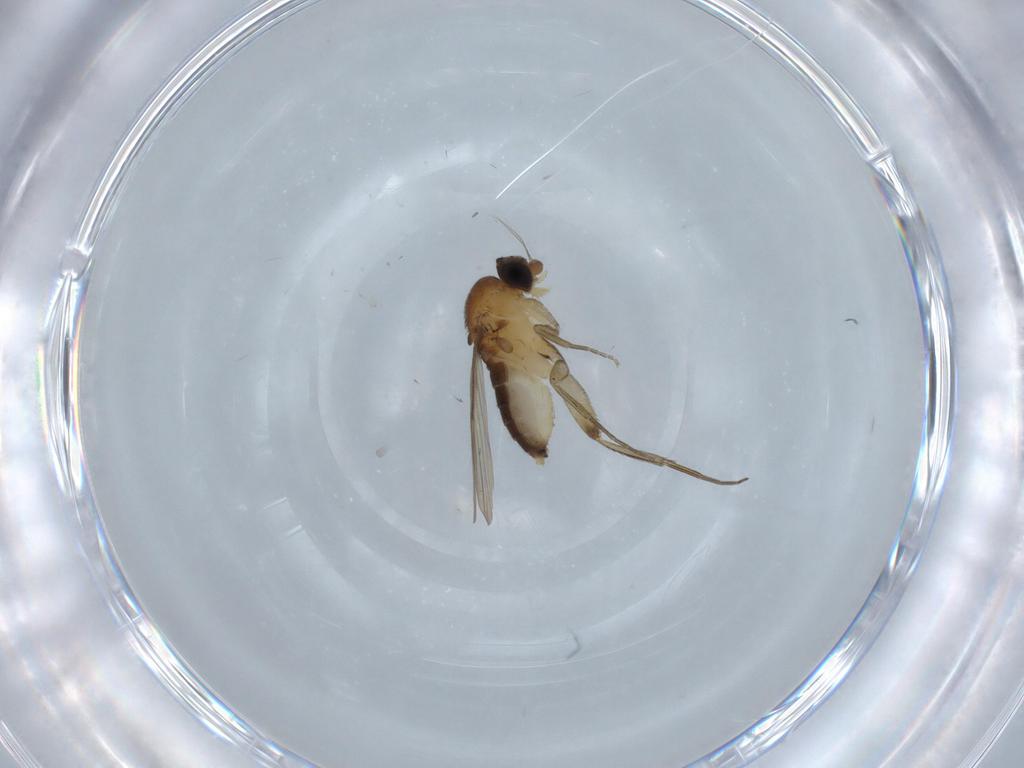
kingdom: Animalia
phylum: Arthropoda
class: Insecta
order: Diptera
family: Phoridae
